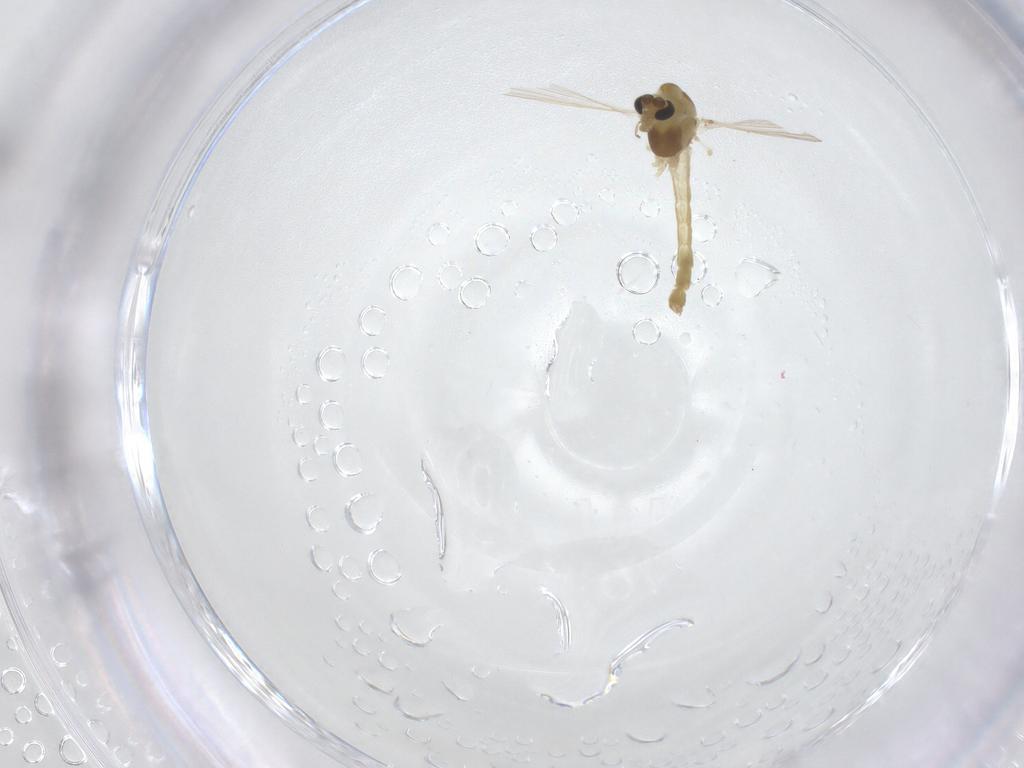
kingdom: Animalia
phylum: Arthropoda
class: Insecta
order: Diptera
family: Chironomidae
